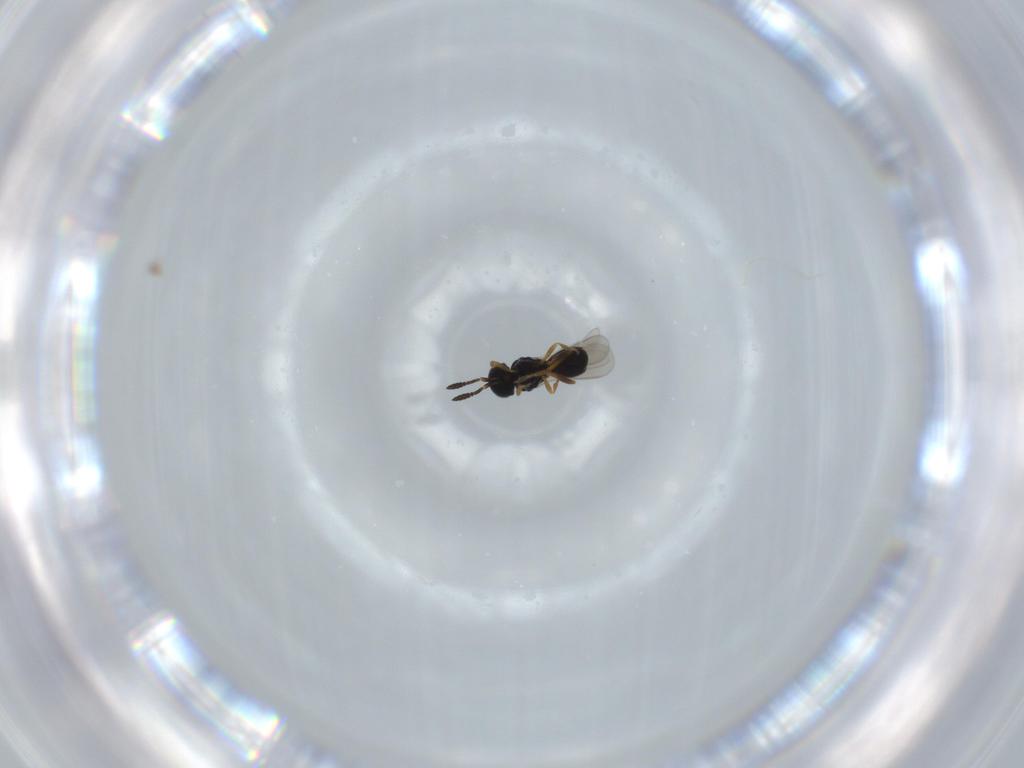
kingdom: Animalia
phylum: Arthropoda
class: Insecta
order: Hymenoptera
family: Scelionidae
